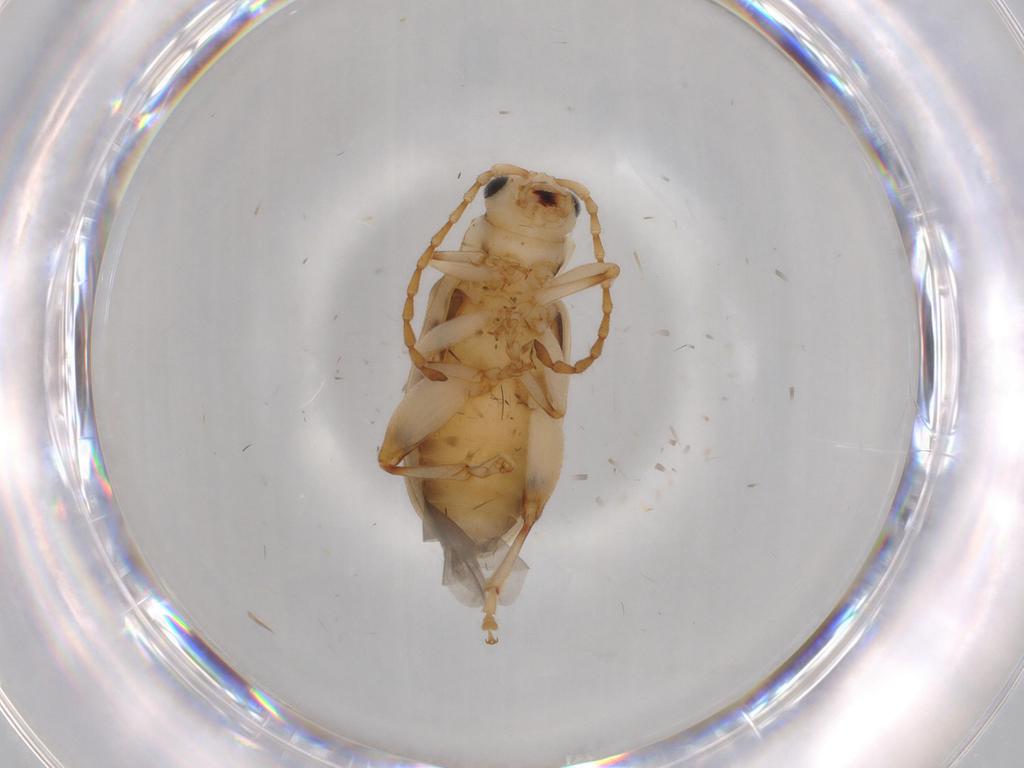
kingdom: Animalia
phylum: Arthropoda
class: Insecta
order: Coleoptera
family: Chrysomelidae
